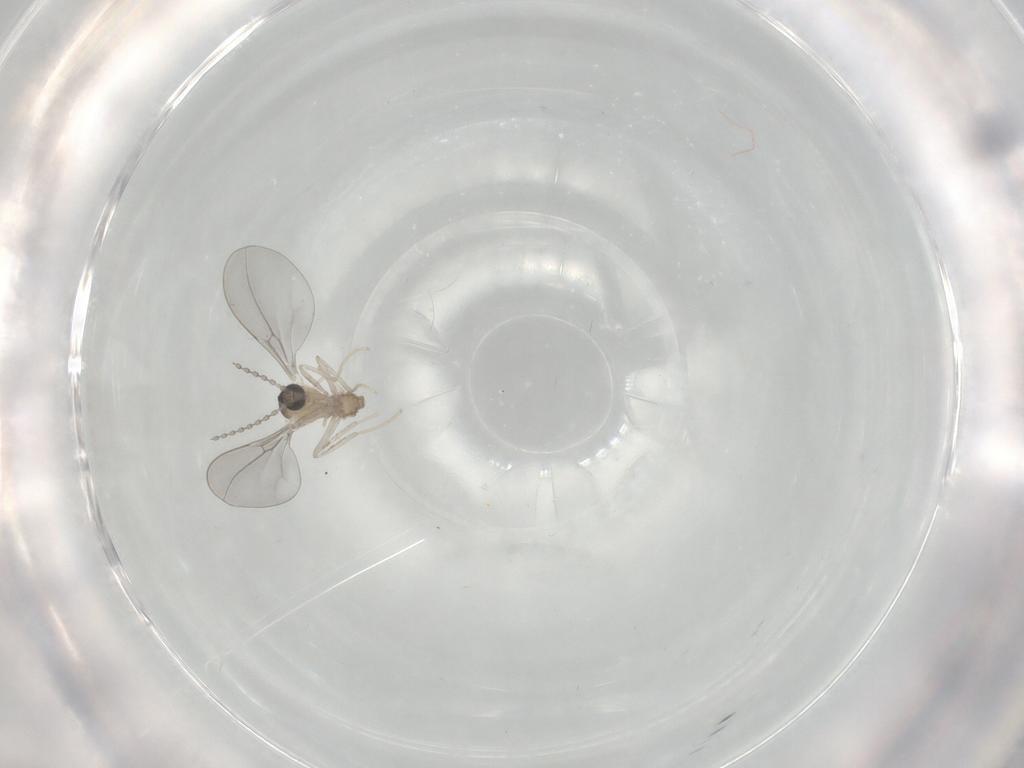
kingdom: Animalia
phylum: Arthropoda
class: Insecta
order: Diptera
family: Cecidomyiidae
